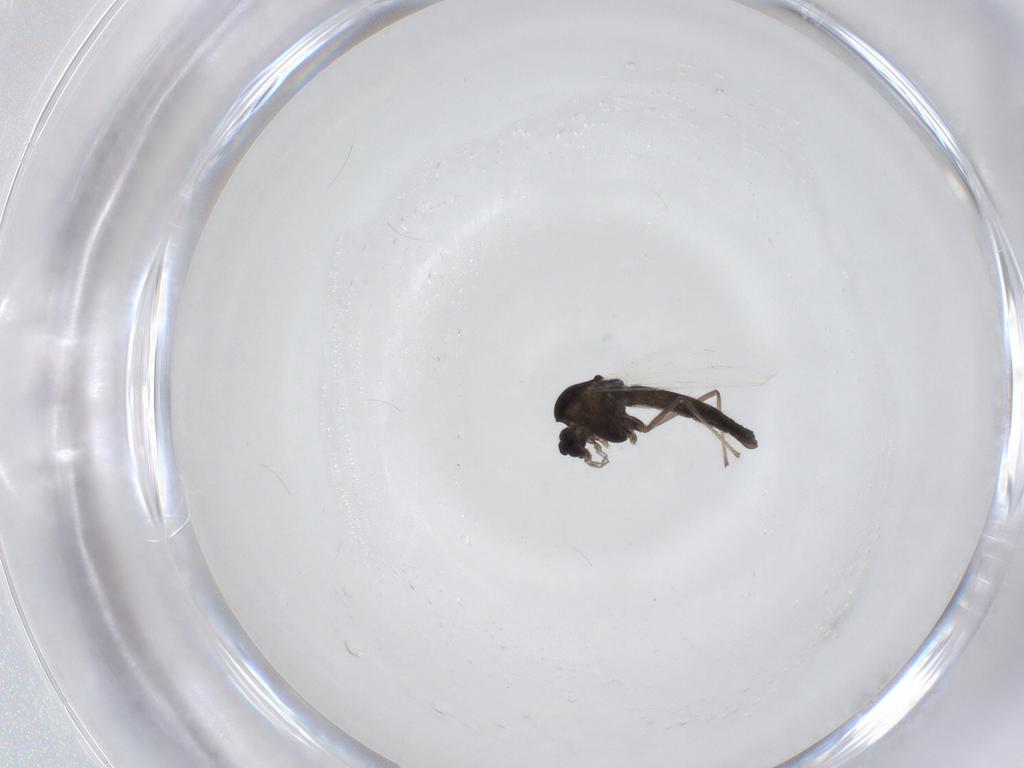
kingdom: Animalia
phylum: Arthropoda
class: Insecta
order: Diptera
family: Chironomidae
